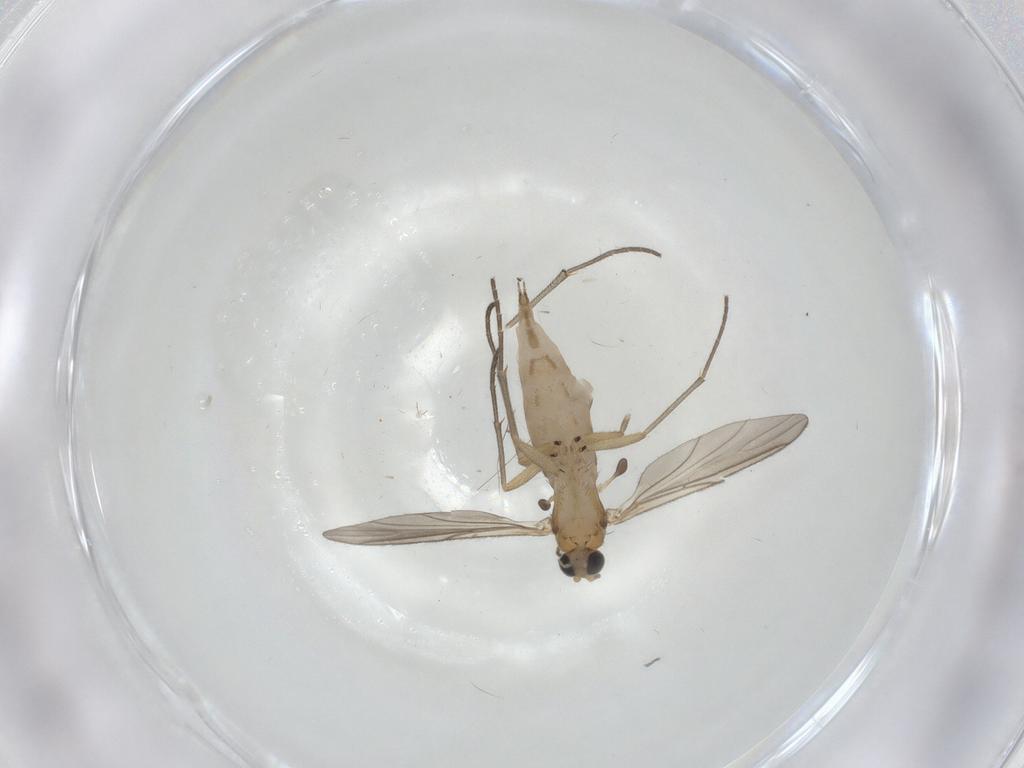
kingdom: Animalia
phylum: Arthropoda
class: Insecta
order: Diptera
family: Sciaridae
